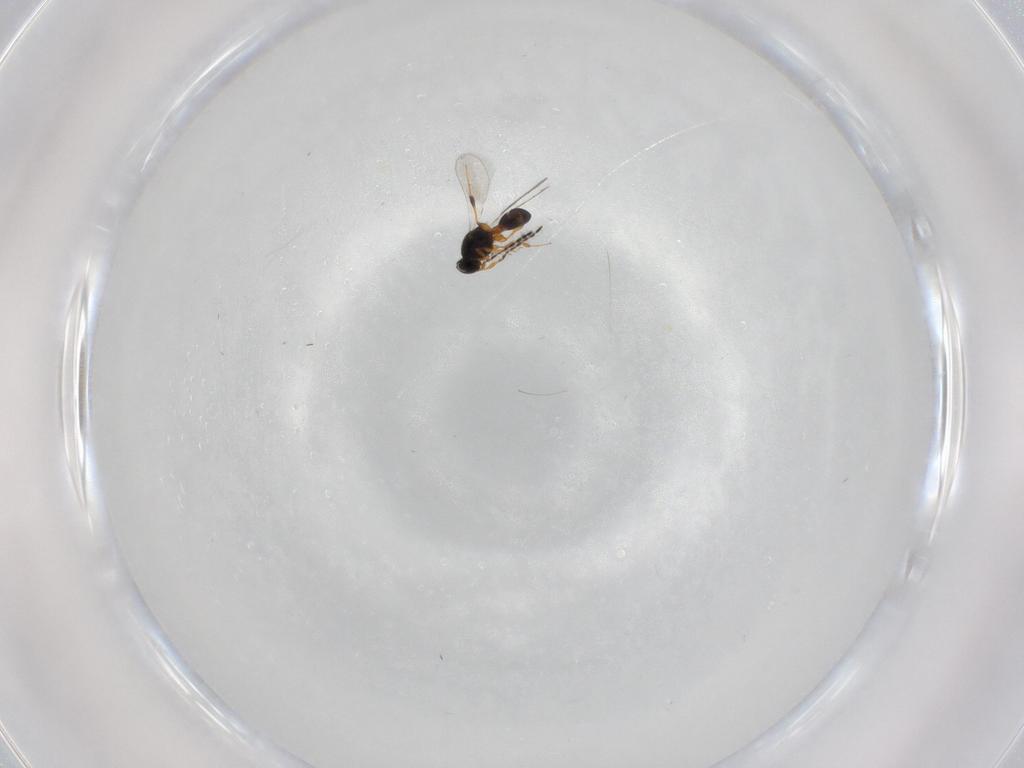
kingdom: Animalia
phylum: Arthropoda
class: Insecta
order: Hymenoptera
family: Platygastridae
